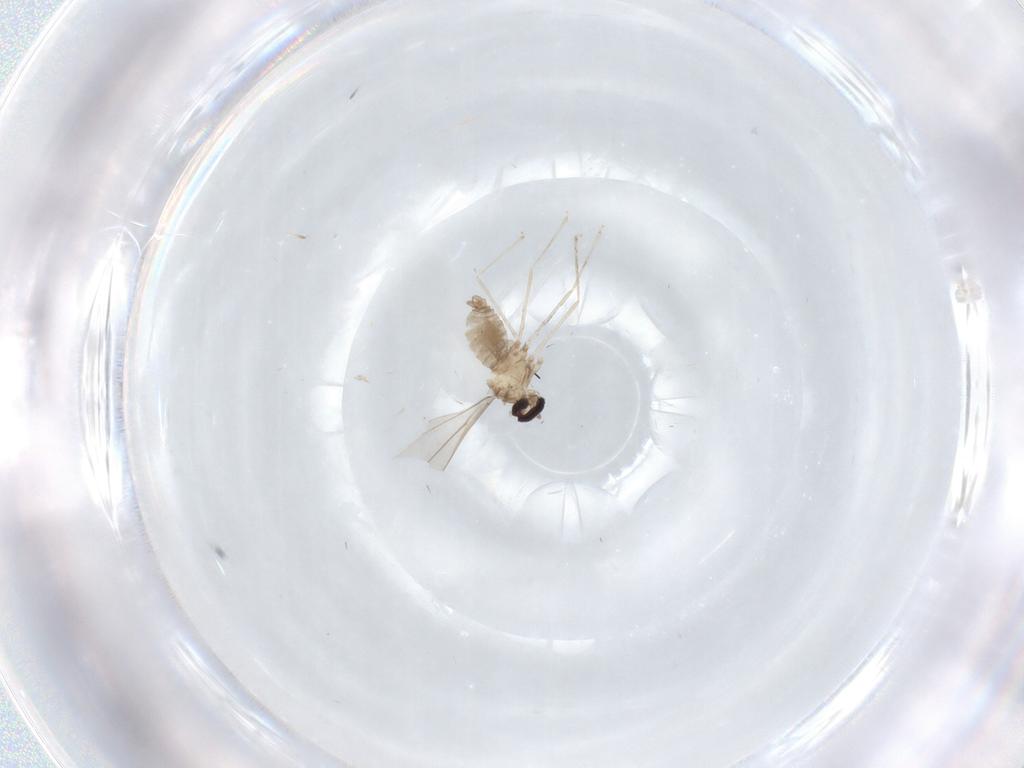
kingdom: Animalia
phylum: Arthropoda
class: Insecta
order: Diptera
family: Cecidomyiidae
